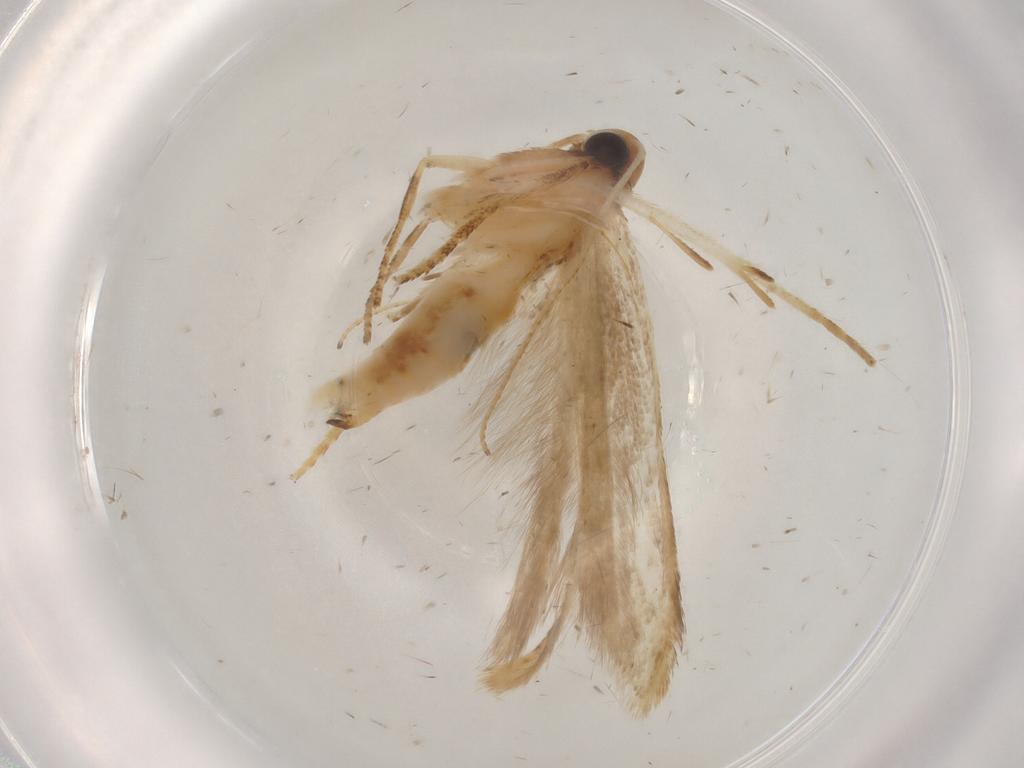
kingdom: Animalia
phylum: Arthropoda
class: Insecta
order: Lepidoptera
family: Gelechiidae
